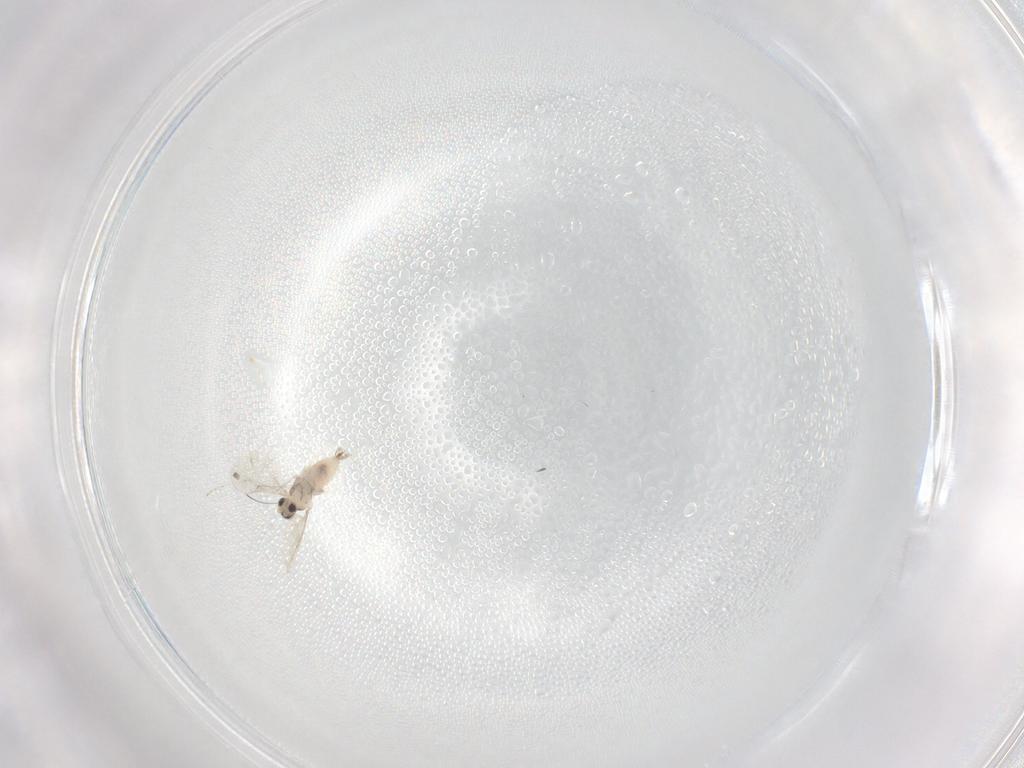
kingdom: Animalia
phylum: Arthropoda
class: Insecta
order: Diptera
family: Cecidomyiidae
